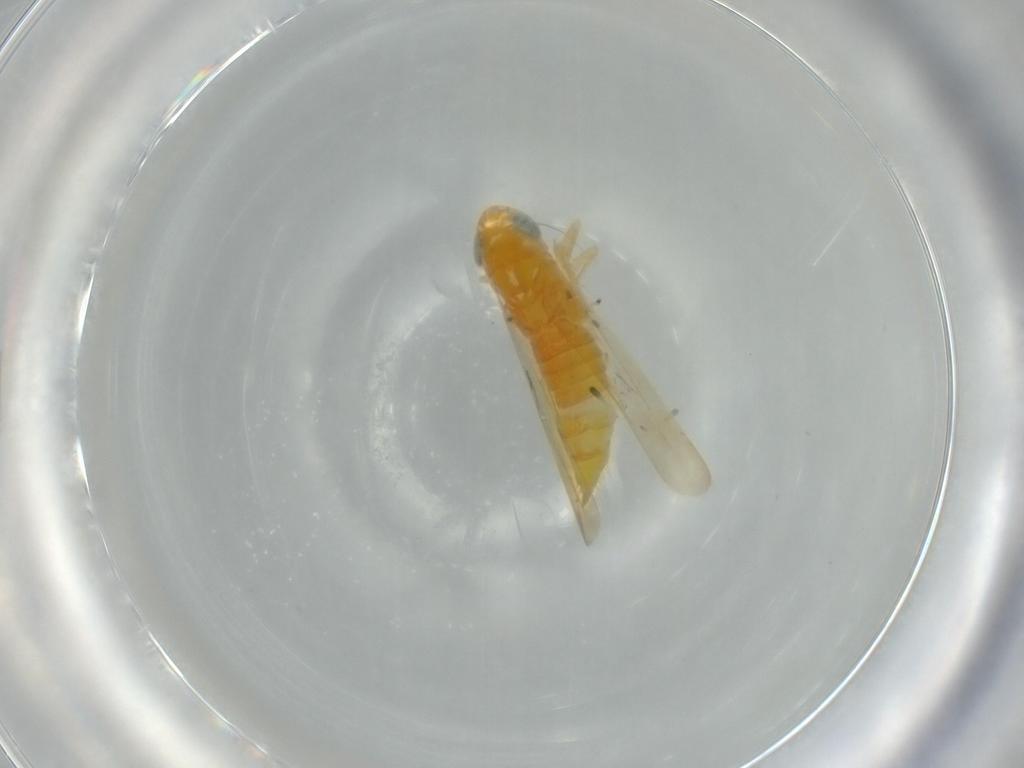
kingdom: Animalia
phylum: Arthropoda
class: Insecta
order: Hemiptera
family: Cicadellidae
